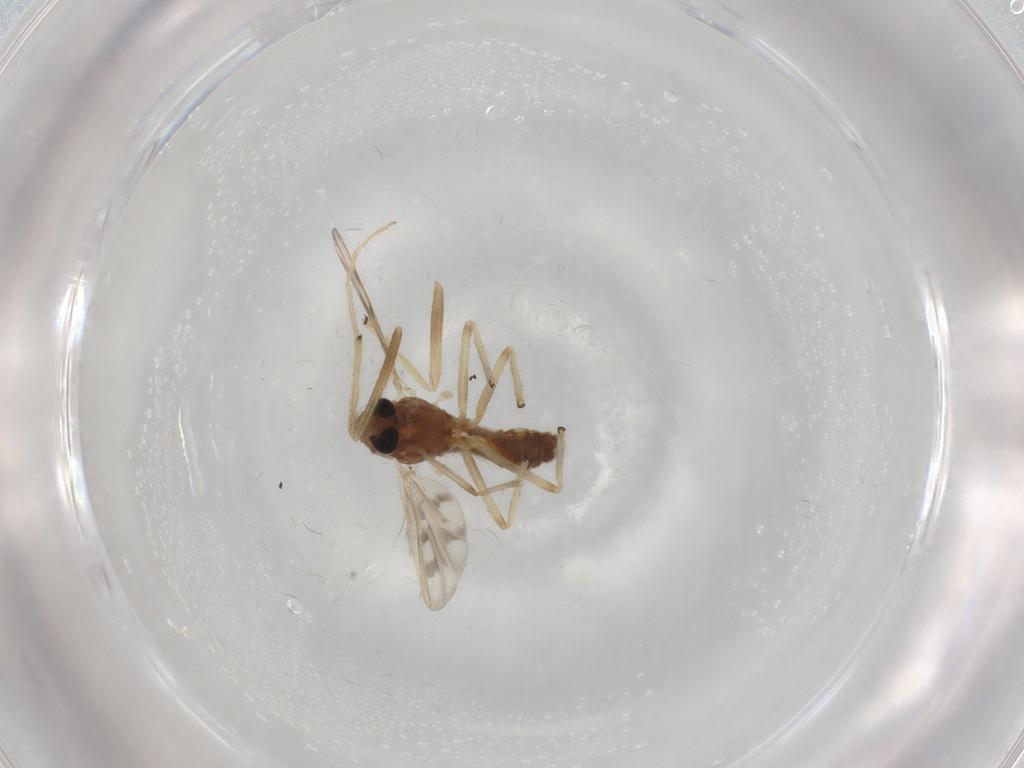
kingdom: Animalia
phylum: Arthropoda
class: Insecta
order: Diptera
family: Chironomidae
